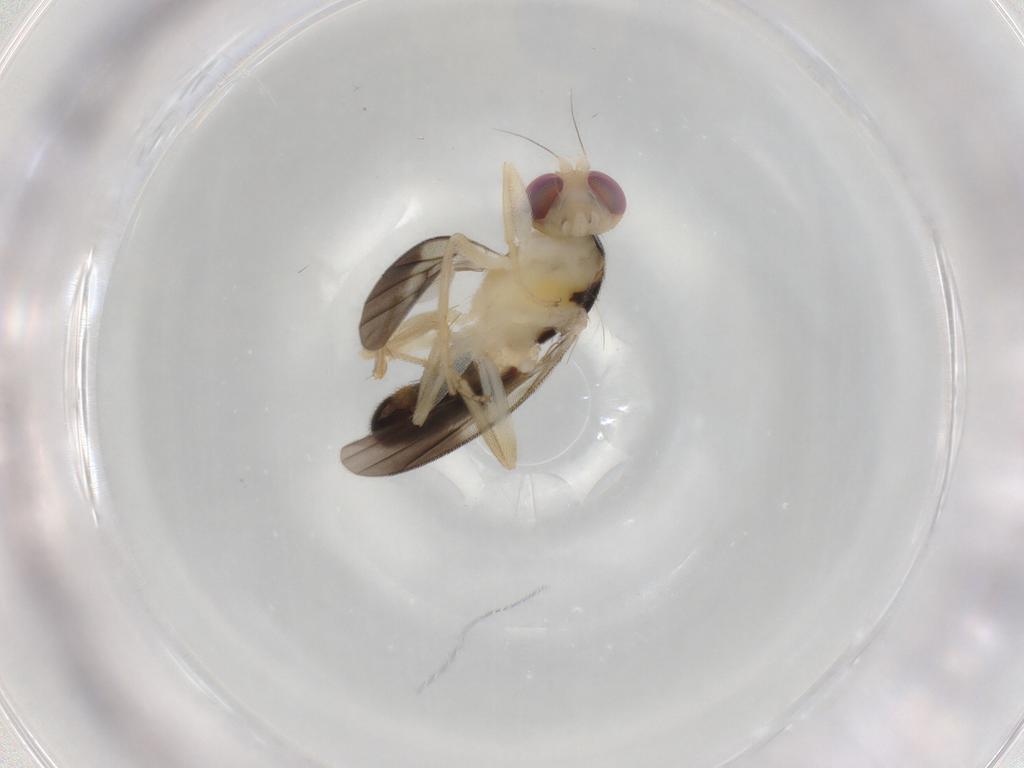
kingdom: Animalia
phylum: Arthropoda
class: Insecta
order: Diptera
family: Clusiidae
